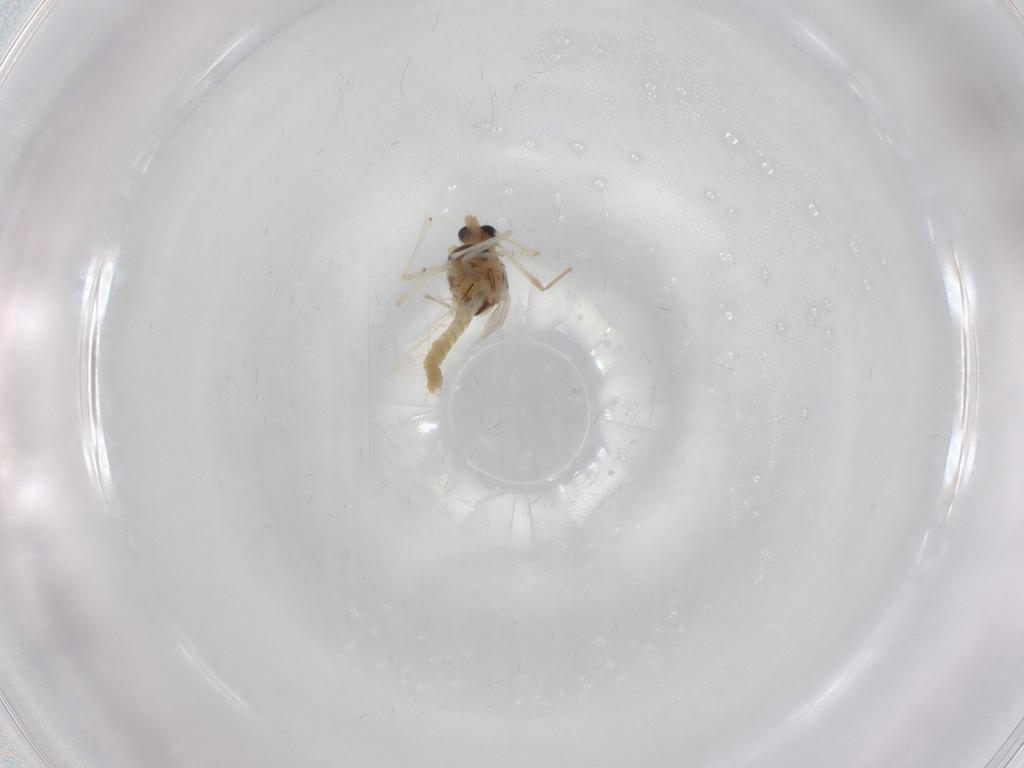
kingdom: Animalia
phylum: Arthropoda
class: Insecta
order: Diptera
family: Chironomidae
